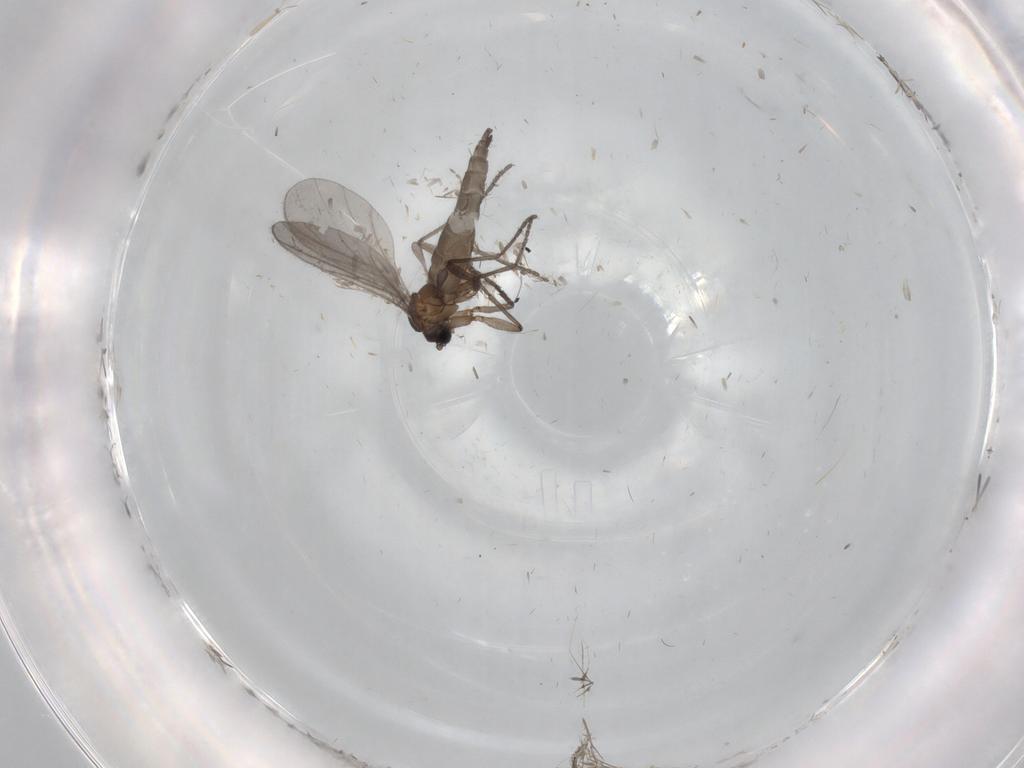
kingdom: Animalia
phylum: Arthropoda
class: Insecta
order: Diptera
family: Sciaridae
